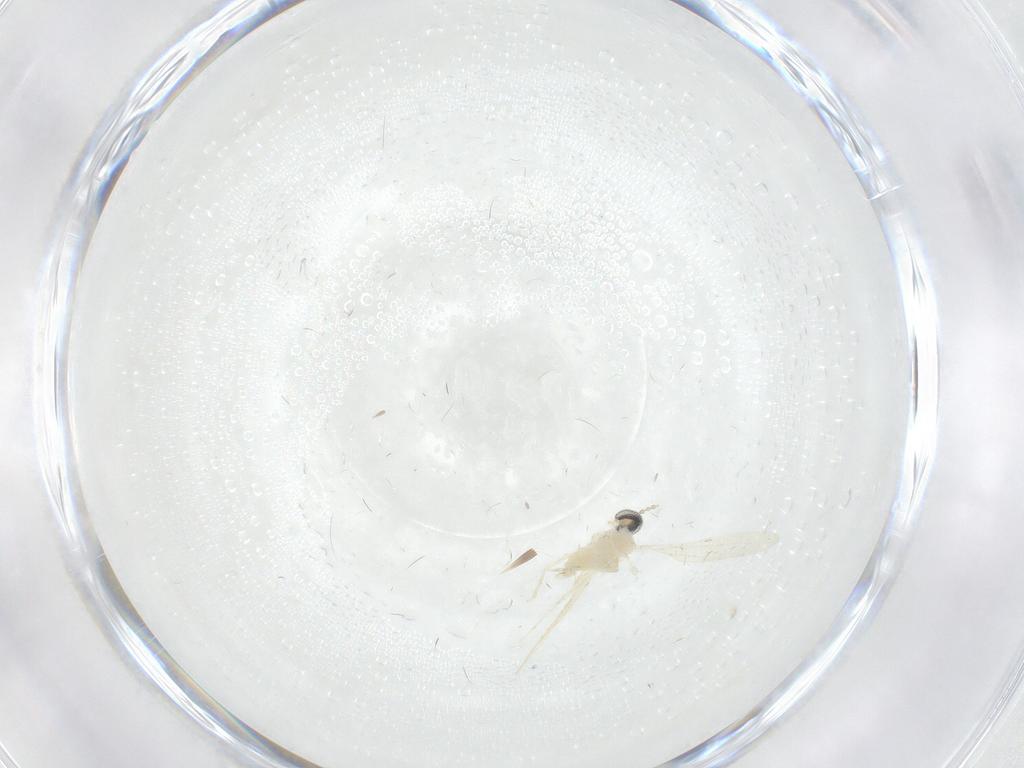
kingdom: Animalia
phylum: Arthropoda
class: Insecta
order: Diptera
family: Cecidomyiidae
